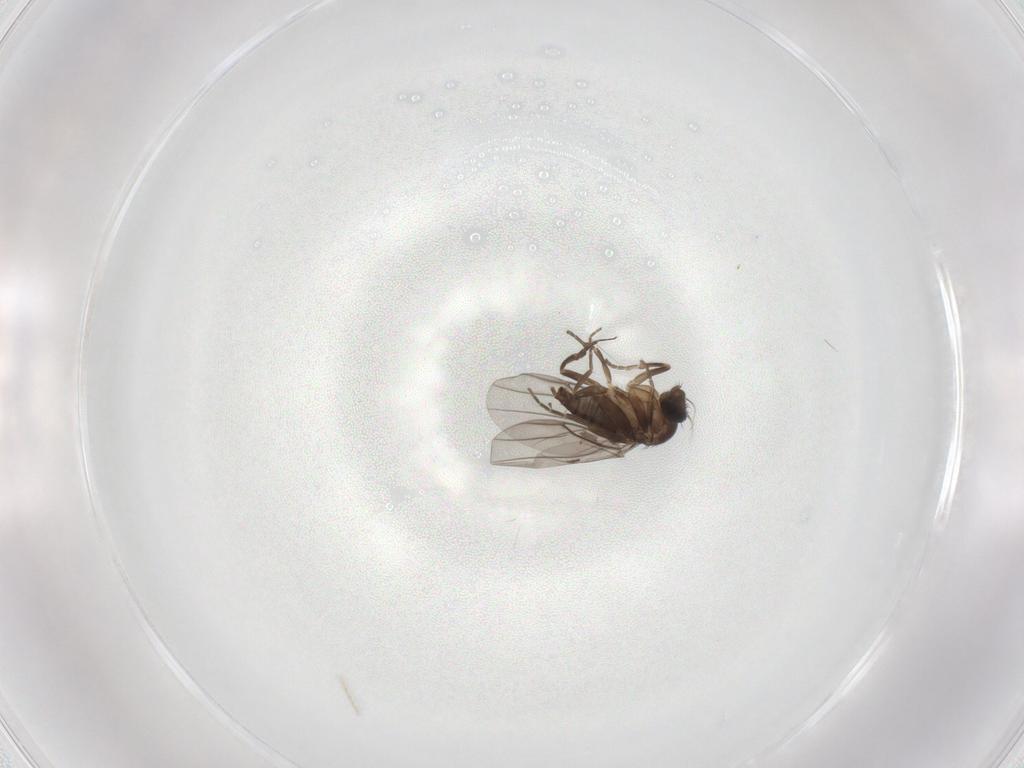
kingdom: Animalia
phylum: Arthropoda
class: Insecta
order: Diptera
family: Phoridae
